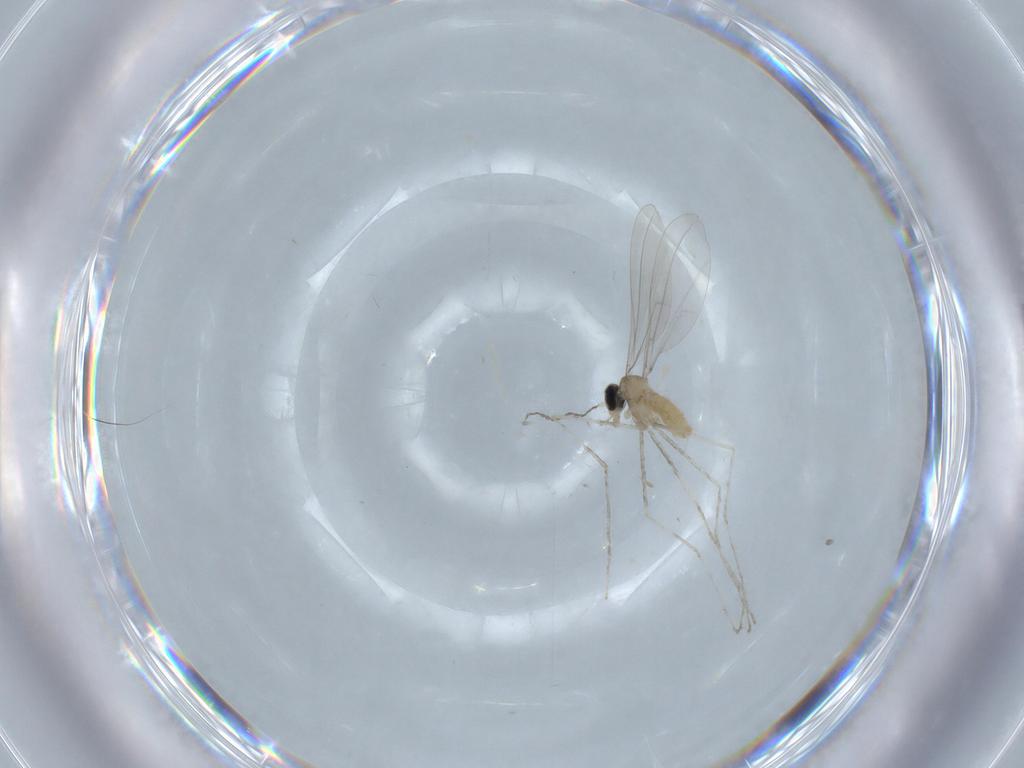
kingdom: Animalia
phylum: Arthropoda
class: Insecta
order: Diptera
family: Cecidomyiidae
